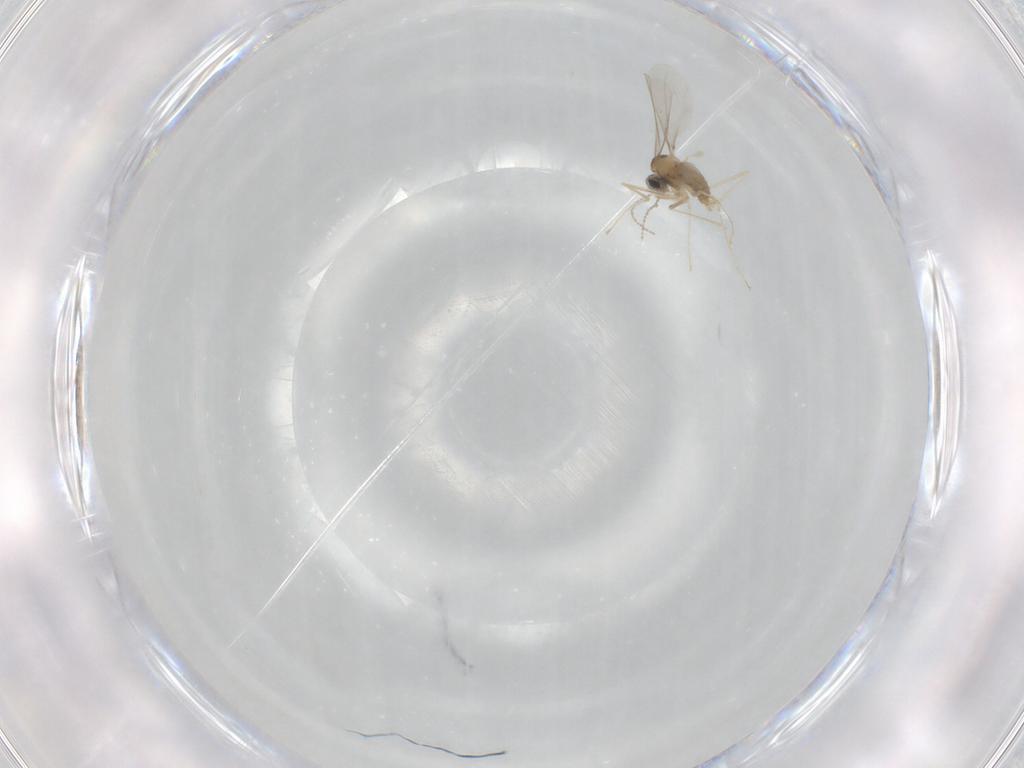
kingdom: Animalia
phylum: Arthropoda
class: Insecta
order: Diptera
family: Cecidomyiidae
